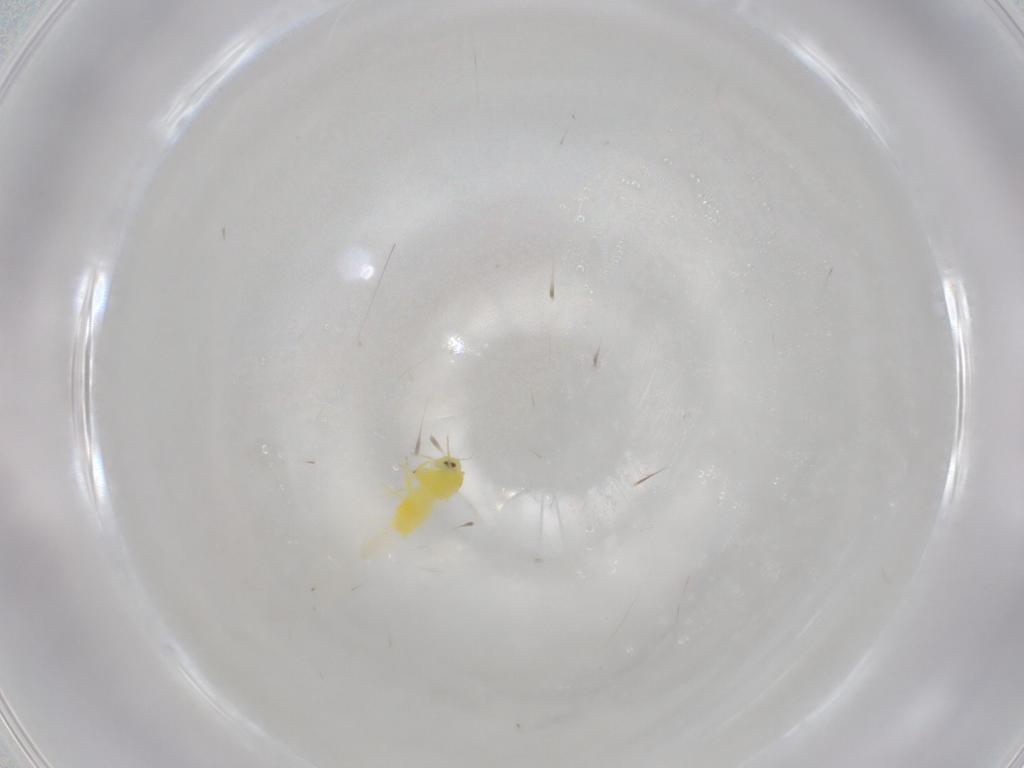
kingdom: Animalia
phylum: Arthropoda
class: Insecta
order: Hemiptera
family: Aleyrodidae
